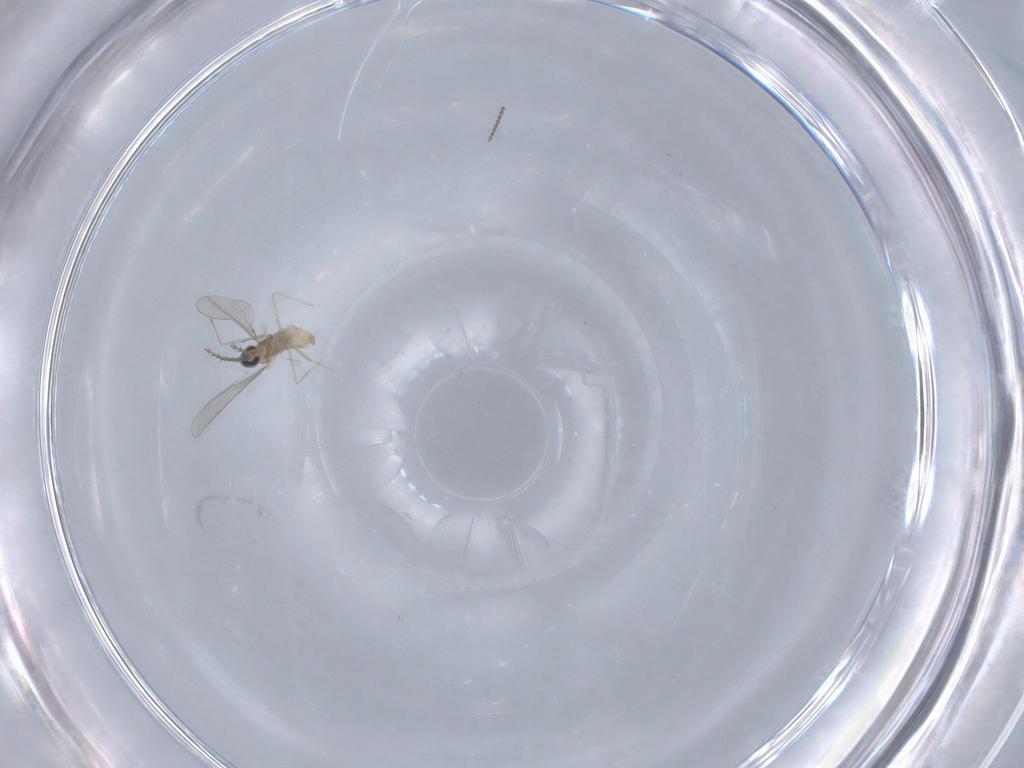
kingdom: Animalia
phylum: Arthropoda
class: Insecta
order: Diptera
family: Cecidomyiidae
